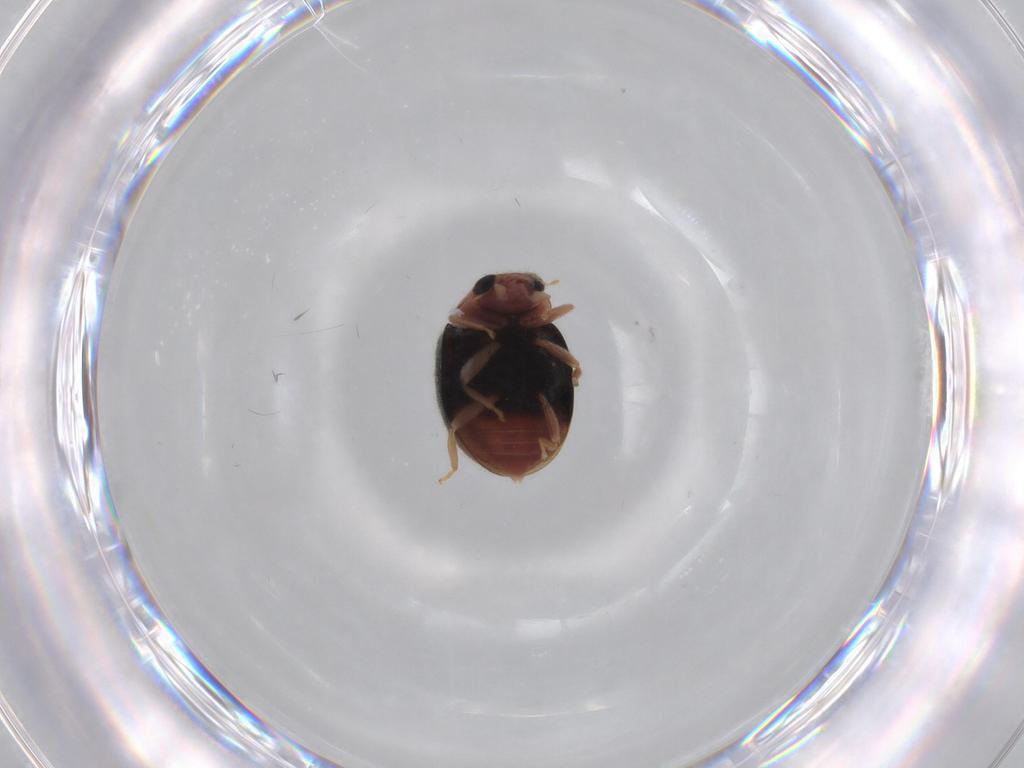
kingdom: Animalia
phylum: Arthropoda
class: Insecta
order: Coleoptera
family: Coccinellidae
